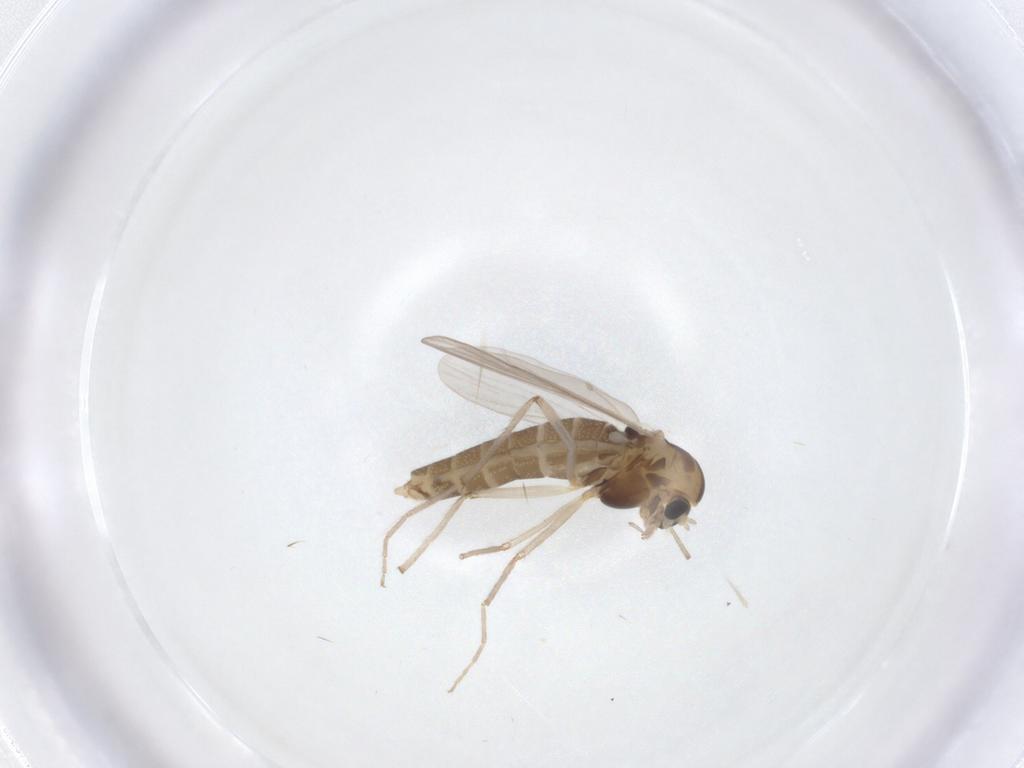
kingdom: Animalia
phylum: Arthropoda
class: Insecta
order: Diptera
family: Chironomidae
